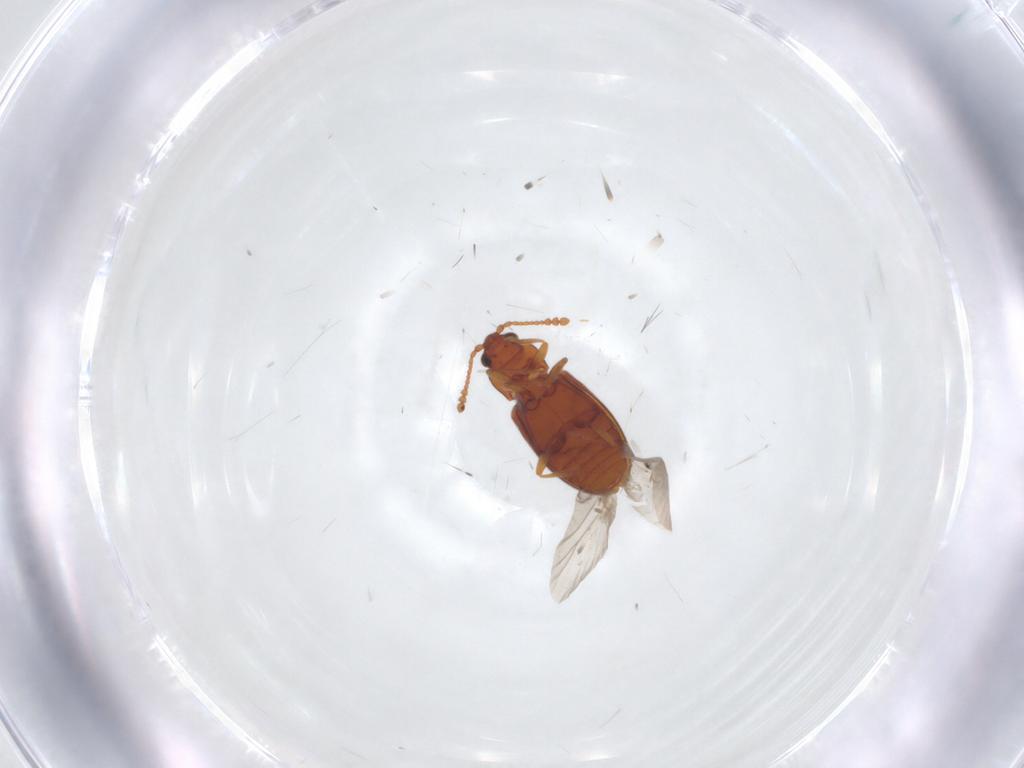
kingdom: Animalia
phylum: Arthropoda
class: Insecta
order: Coleoptera
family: Cryptophagidae
